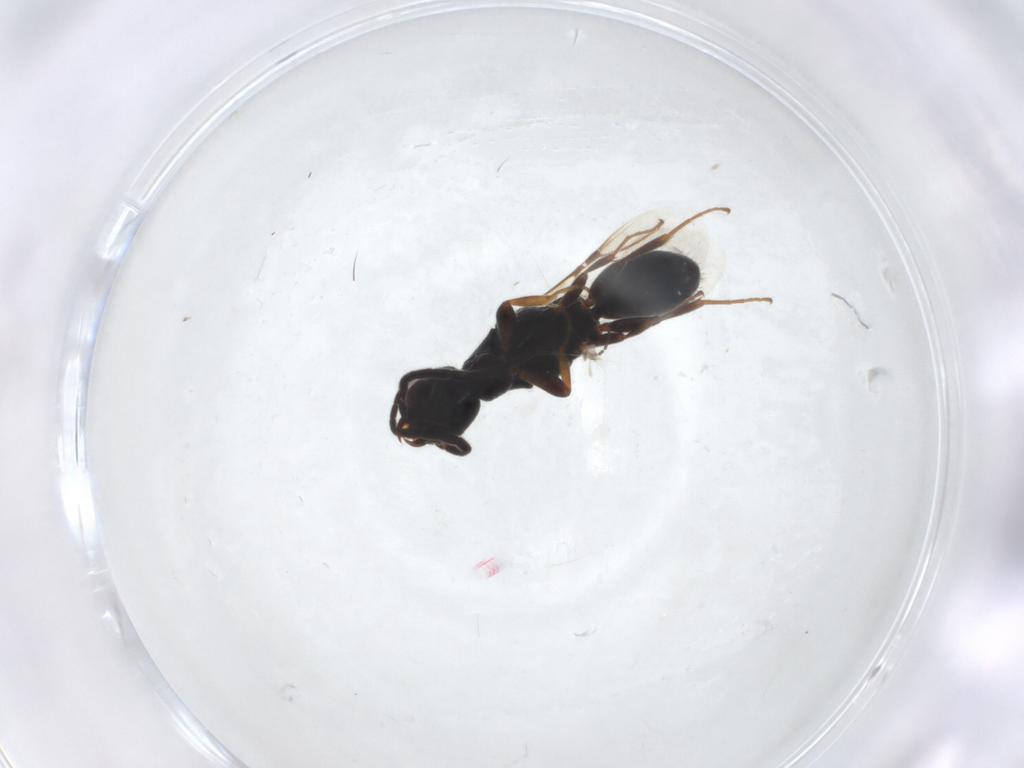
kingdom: Animalia
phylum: Arthropoda
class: Insecta
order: Hymenoptera
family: Bethylidae
